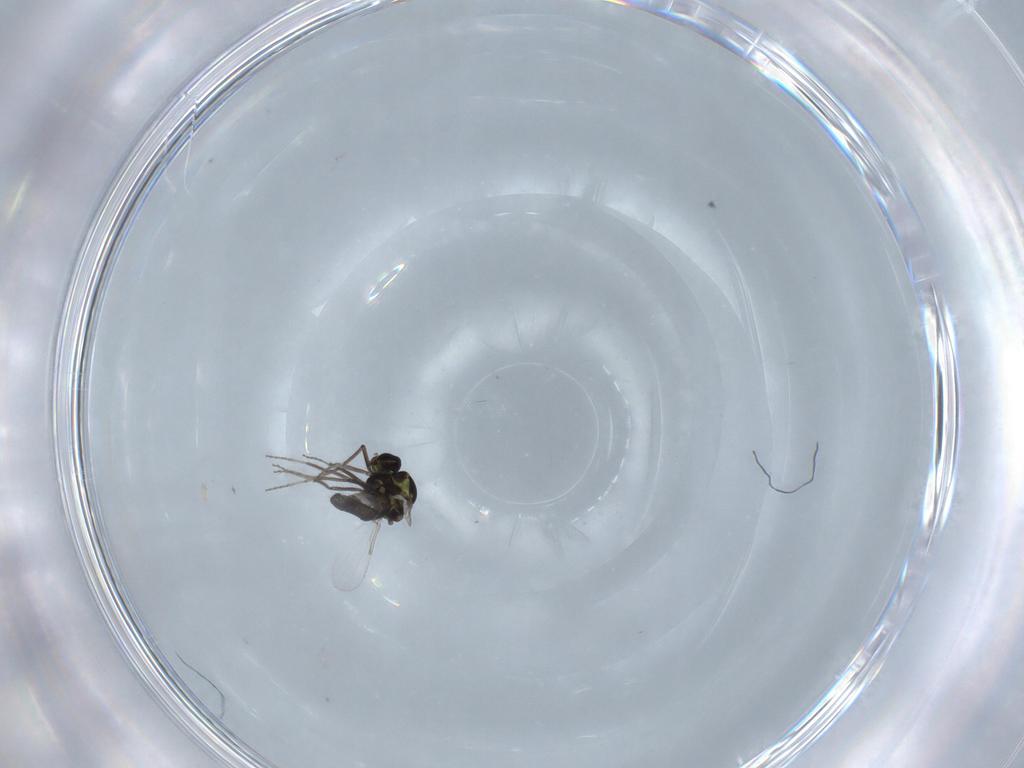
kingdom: Animalia
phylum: Arthropoda
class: Insecta
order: Diptera
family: Ceratopogonidae
